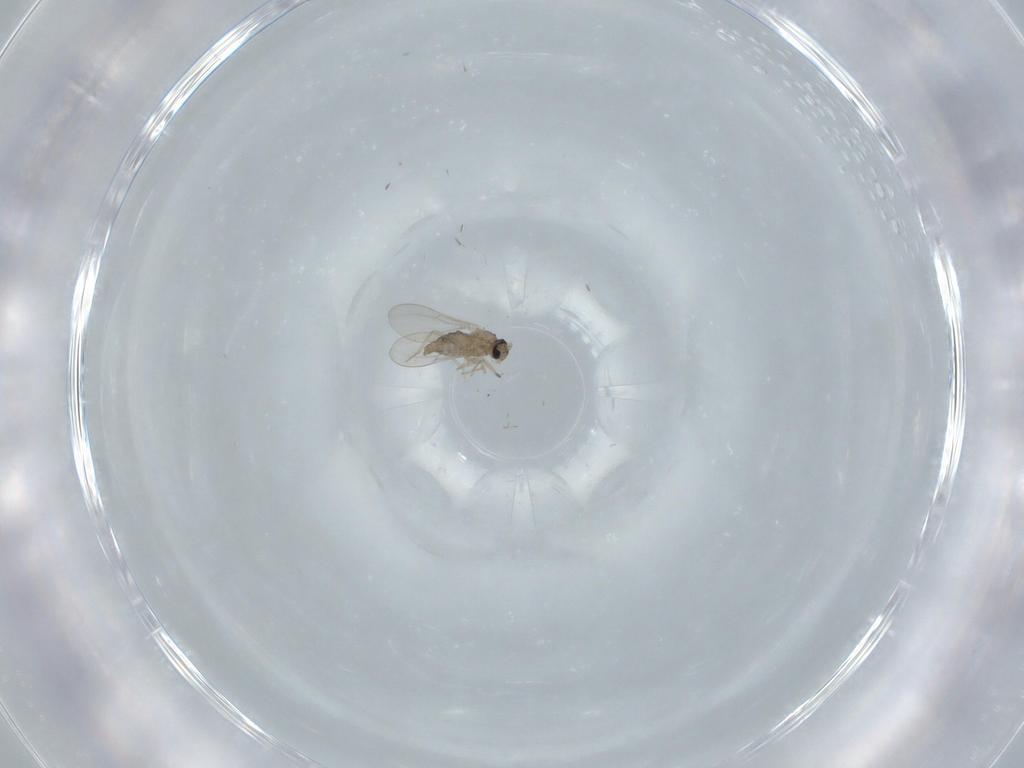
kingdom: Animalia
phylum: Arthropoda
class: Insecta
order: Diptera
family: Cecidomyiidae
